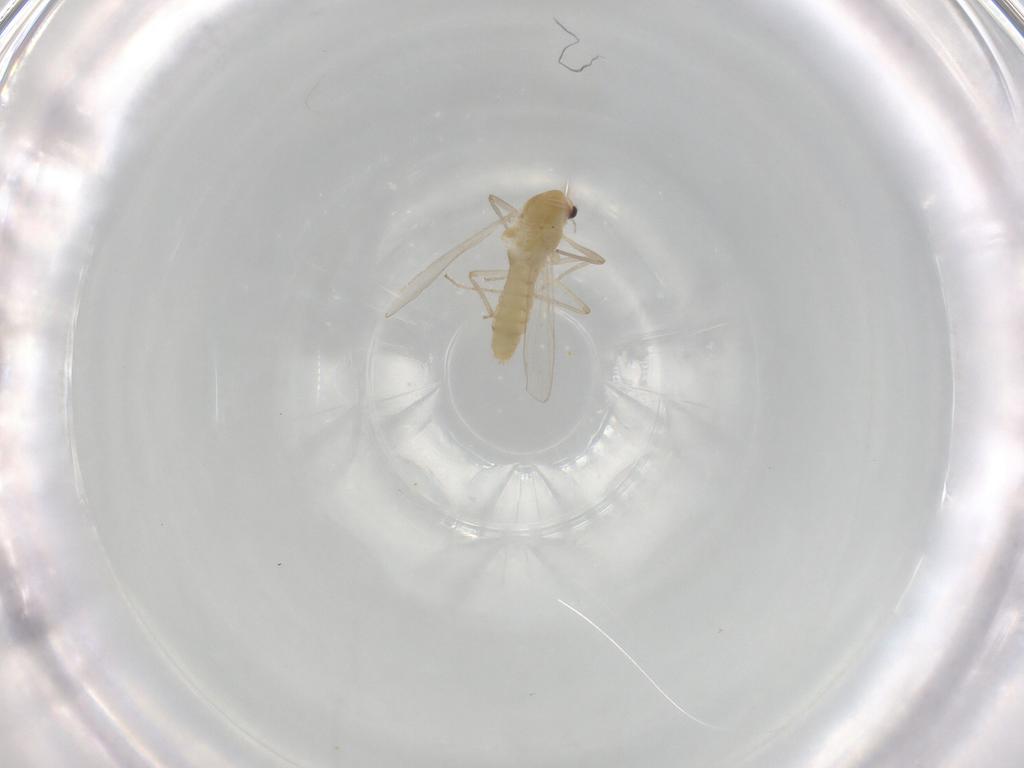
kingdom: Animalia
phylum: Arthropoda
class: Insecta
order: Diptera
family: Chironomidae
